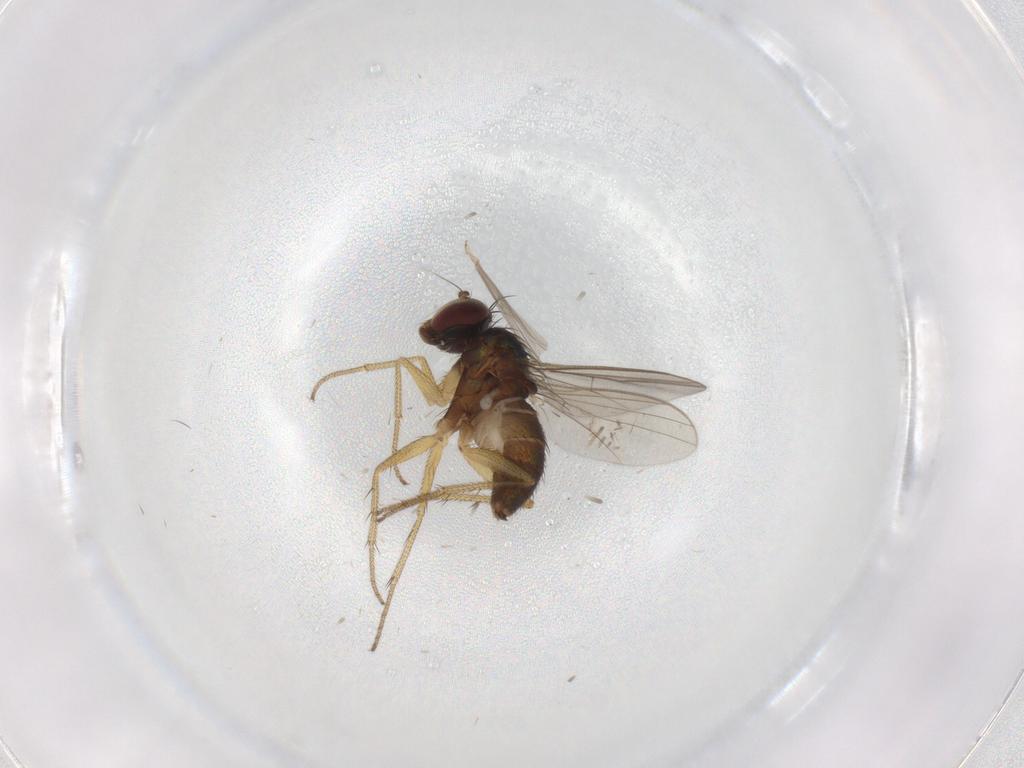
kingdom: Animalia
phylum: Arthropoda
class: Insecta
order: Diptera
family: Dolichopodidae
